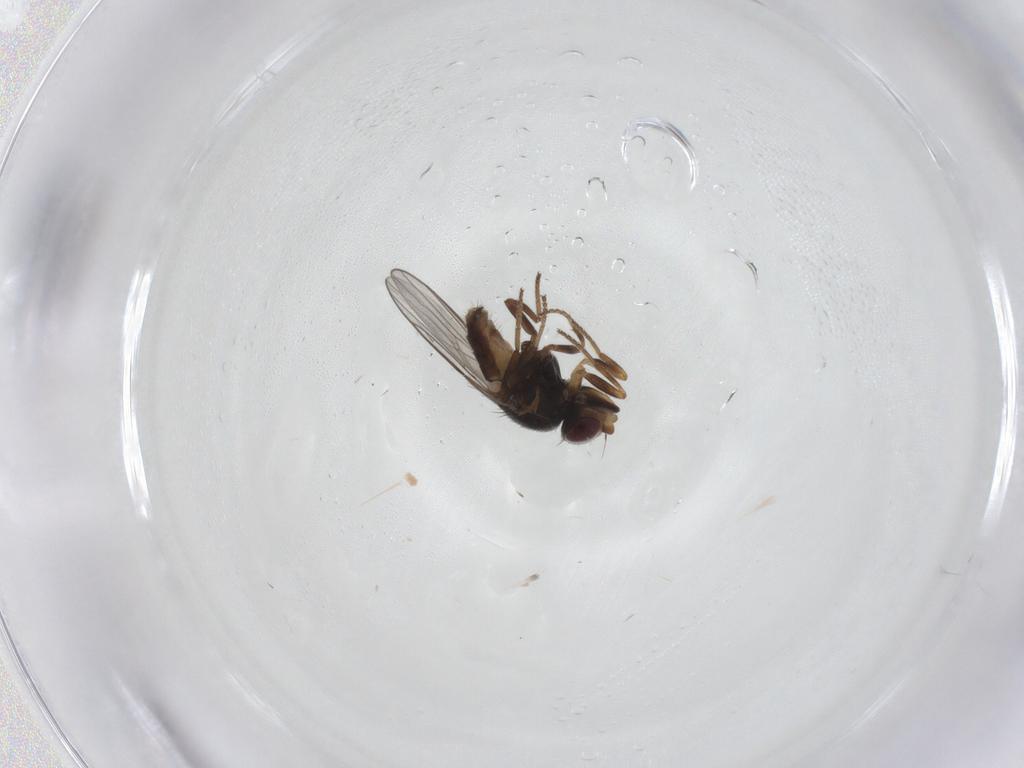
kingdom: Animalia
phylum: Arthropoda
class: Insecta
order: Diptera
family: Chloropidae
